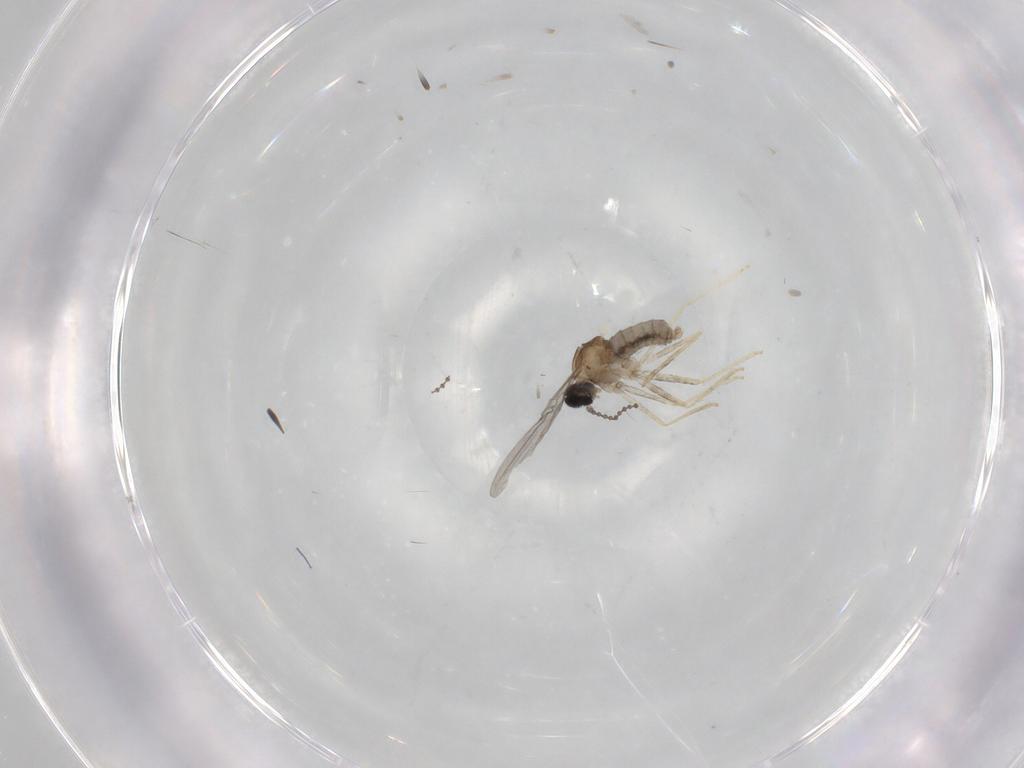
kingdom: Animalia
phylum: Arthropoda
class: Insecta
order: Diptera
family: Cecidomyiidae
